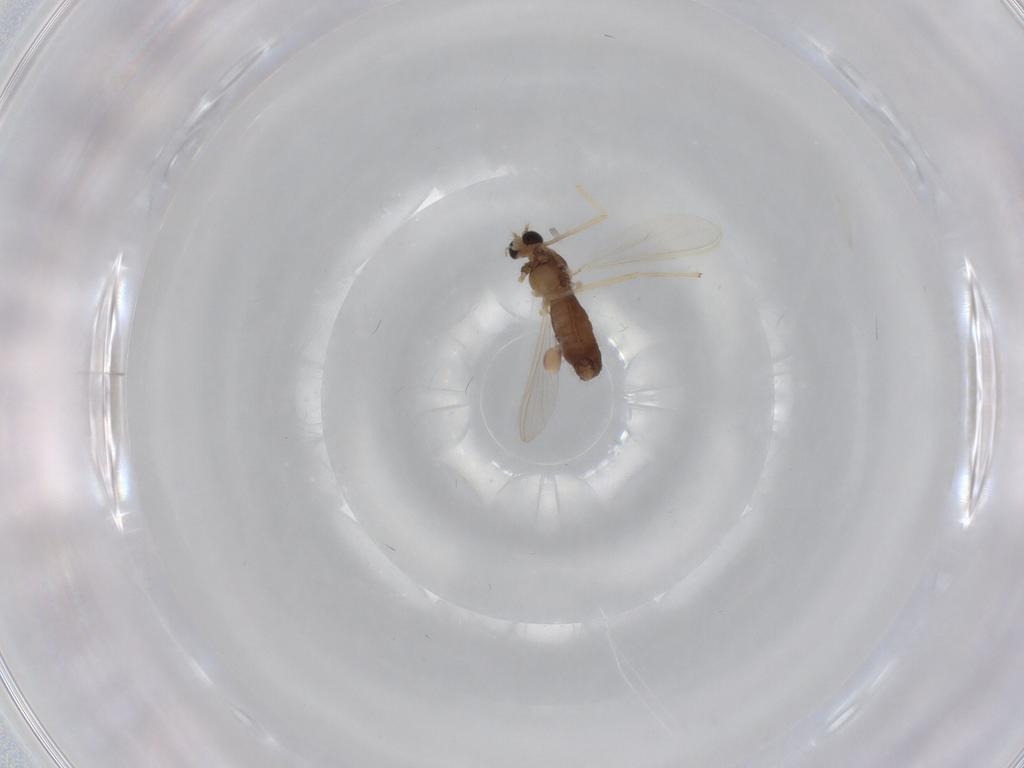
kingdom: Animalia
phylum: Arthropoda
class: Insecta
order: Diptera
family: Chironomidae
